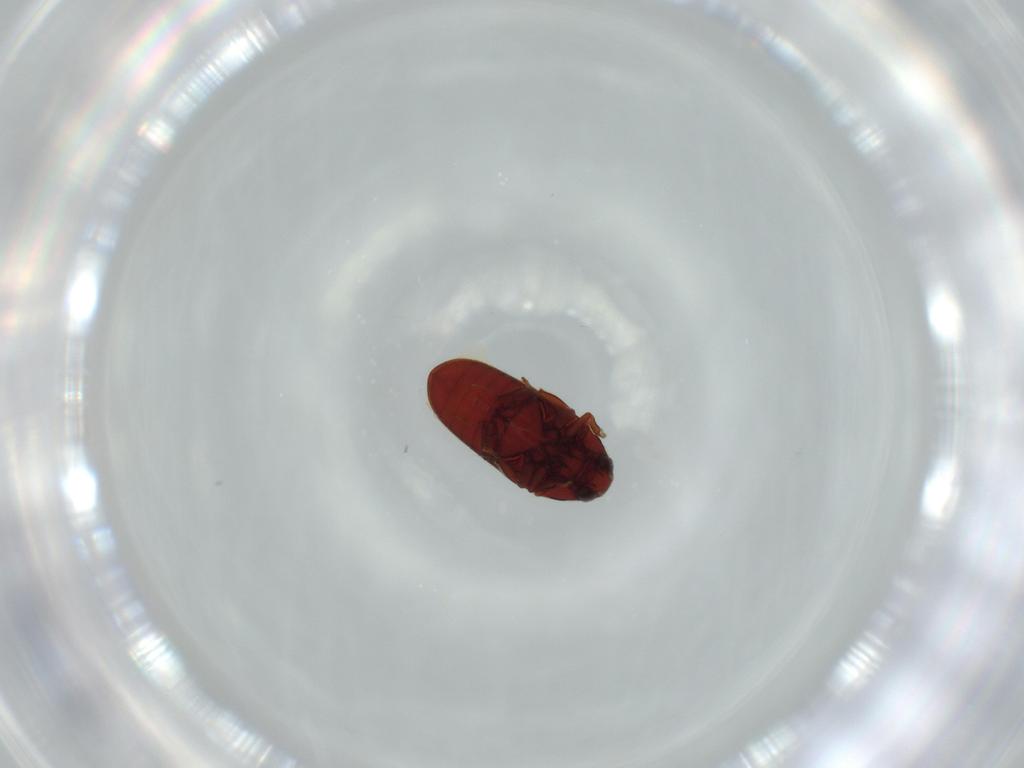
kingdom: Animalia
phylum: Arthropoda
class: Insecta
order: Coleoptera
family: Throscidae
